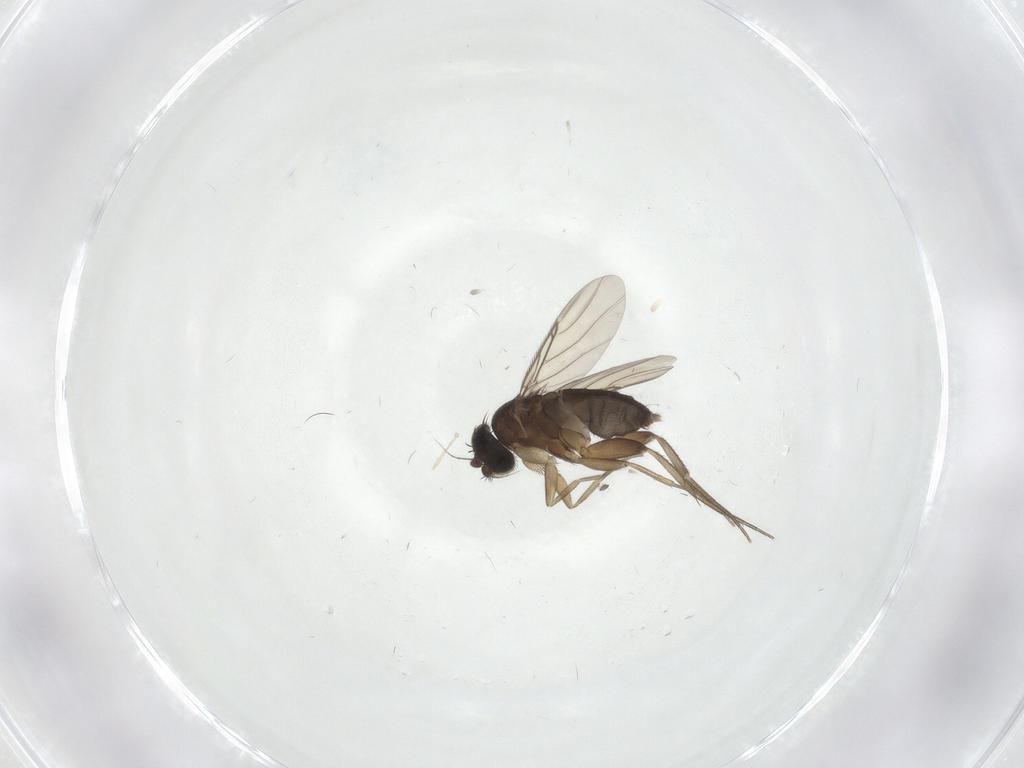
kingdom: Animalia
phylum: Arthropoda
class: Insecta
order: Diptera
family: Phoridae
